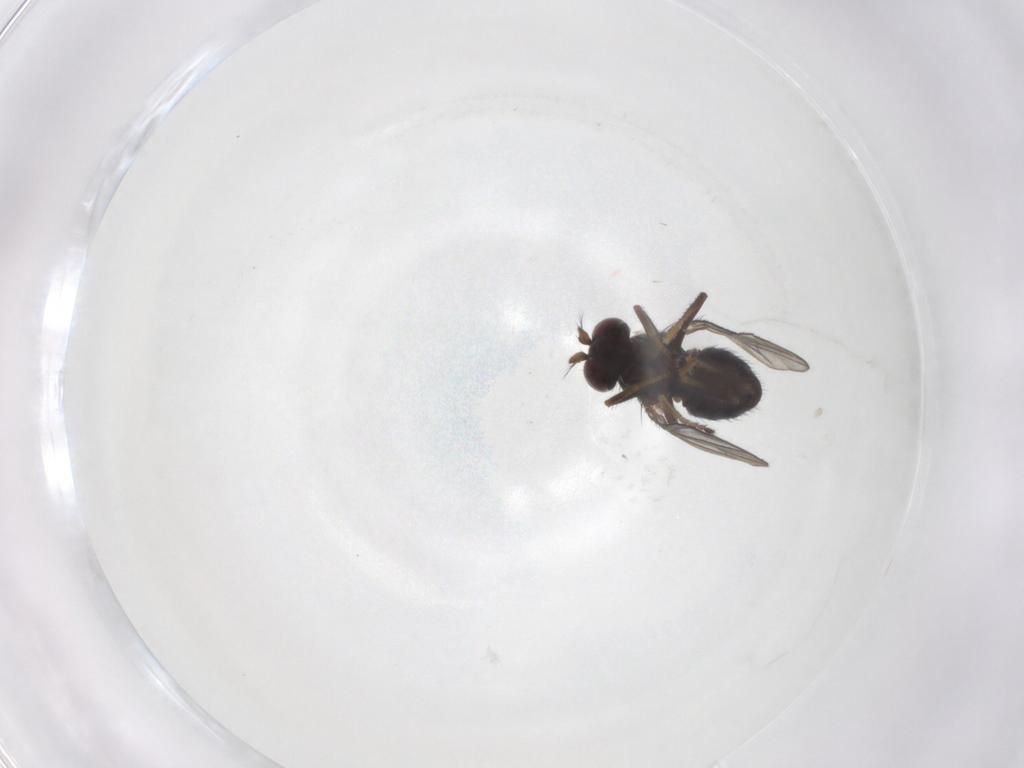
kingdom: Animalia
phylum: Arthropoda
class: Insecta
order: Diptera
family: Ephydridae
